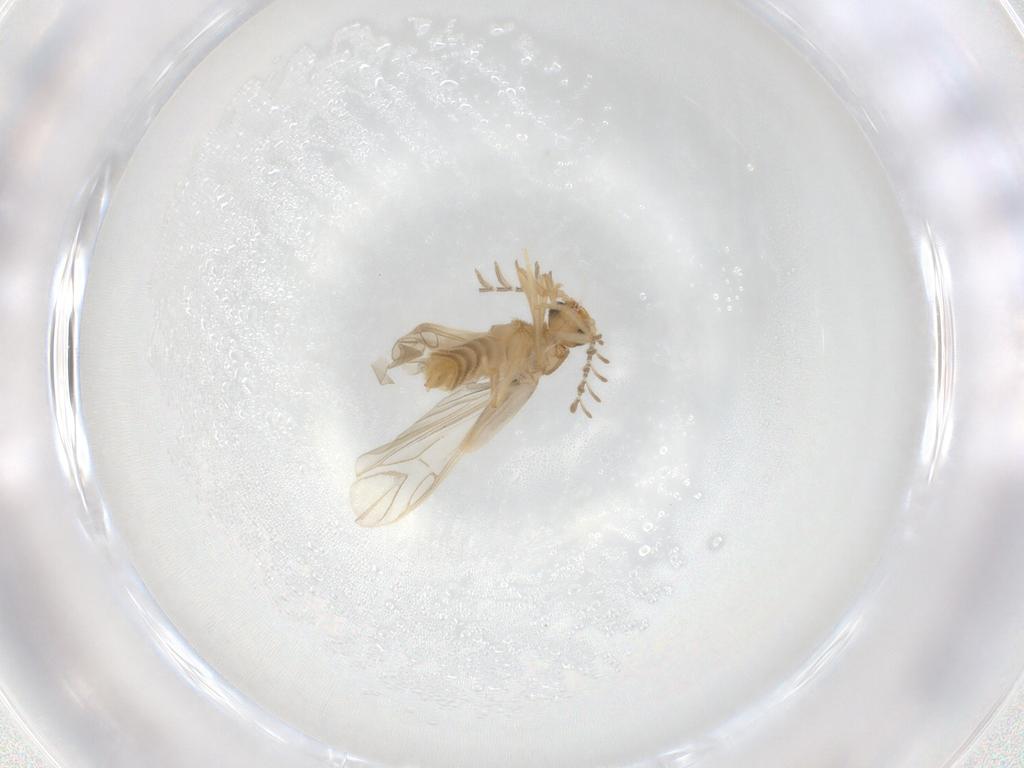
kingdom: Animalia
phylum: Arthropoda
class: Insecta
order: Coleoptera
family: Phengodidae
